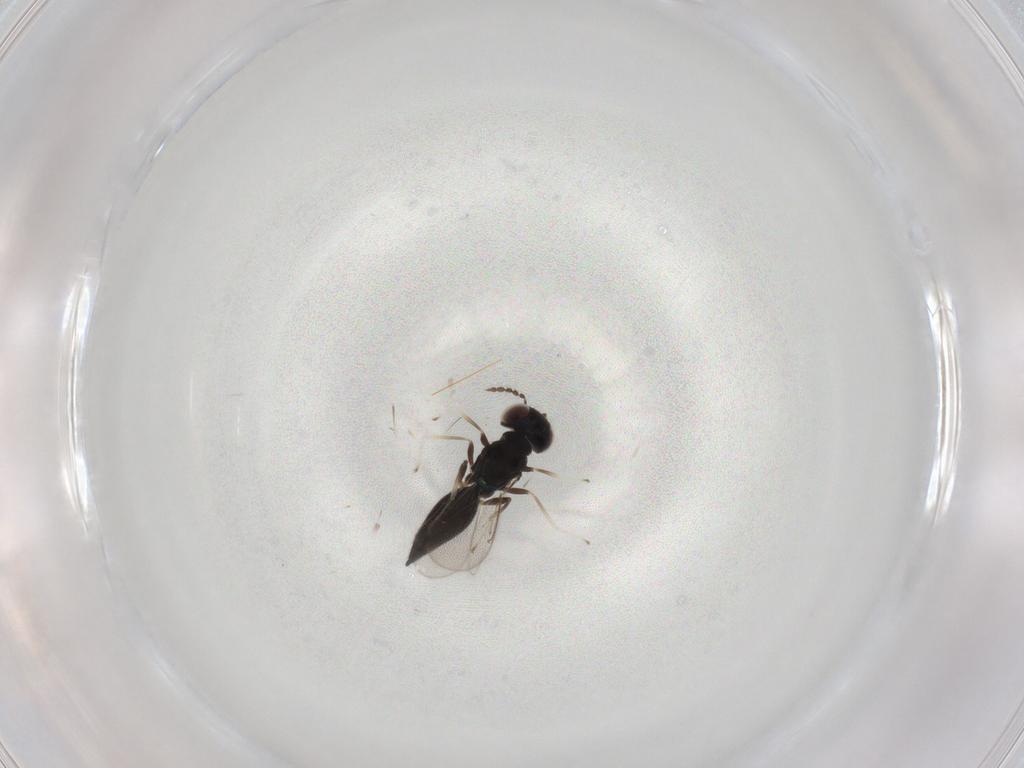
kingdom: Animalia
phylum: Arthropoda
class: Insecta
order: Hymenoptera
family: Eulophidae
